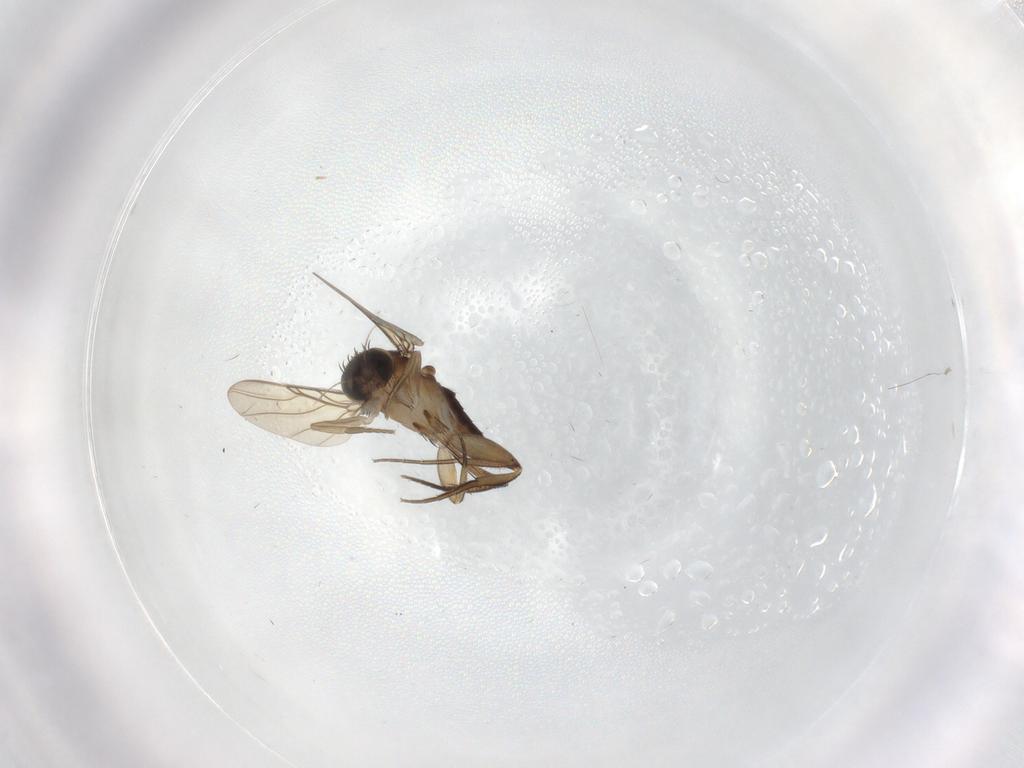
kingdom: Animalia
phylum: Arthropoda
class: Insecta
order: Diptera
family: Phoridae
